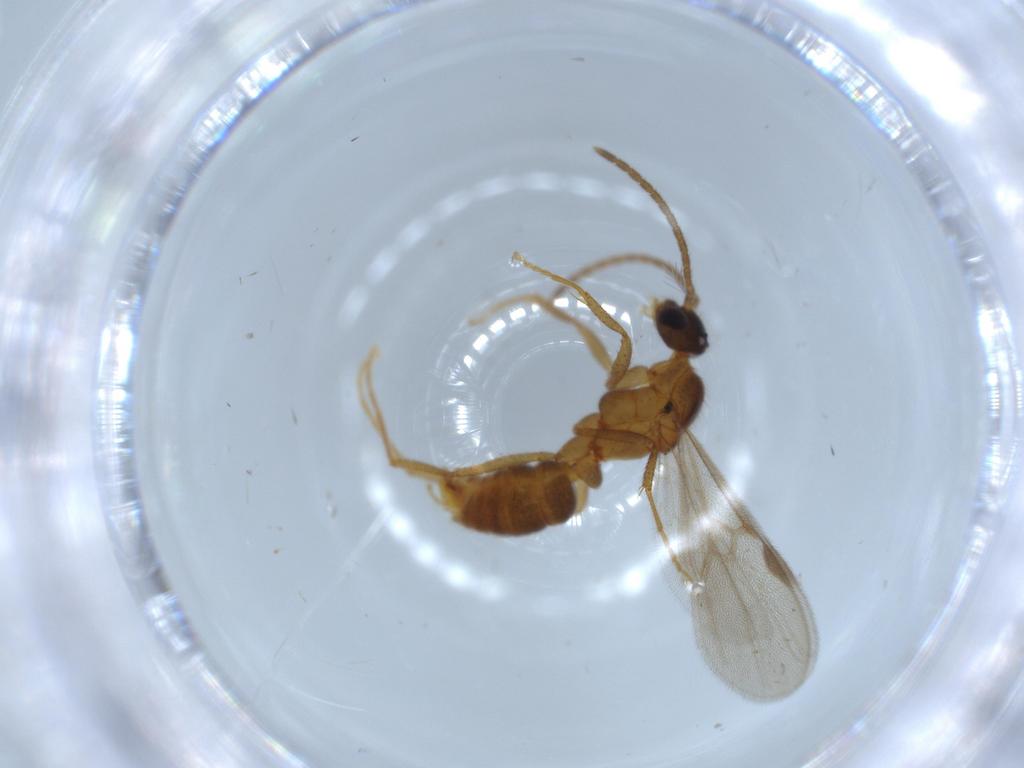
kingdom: Animalia
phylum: Arthropoda
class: Insecta
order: Hymenoptera
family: Formicidae
